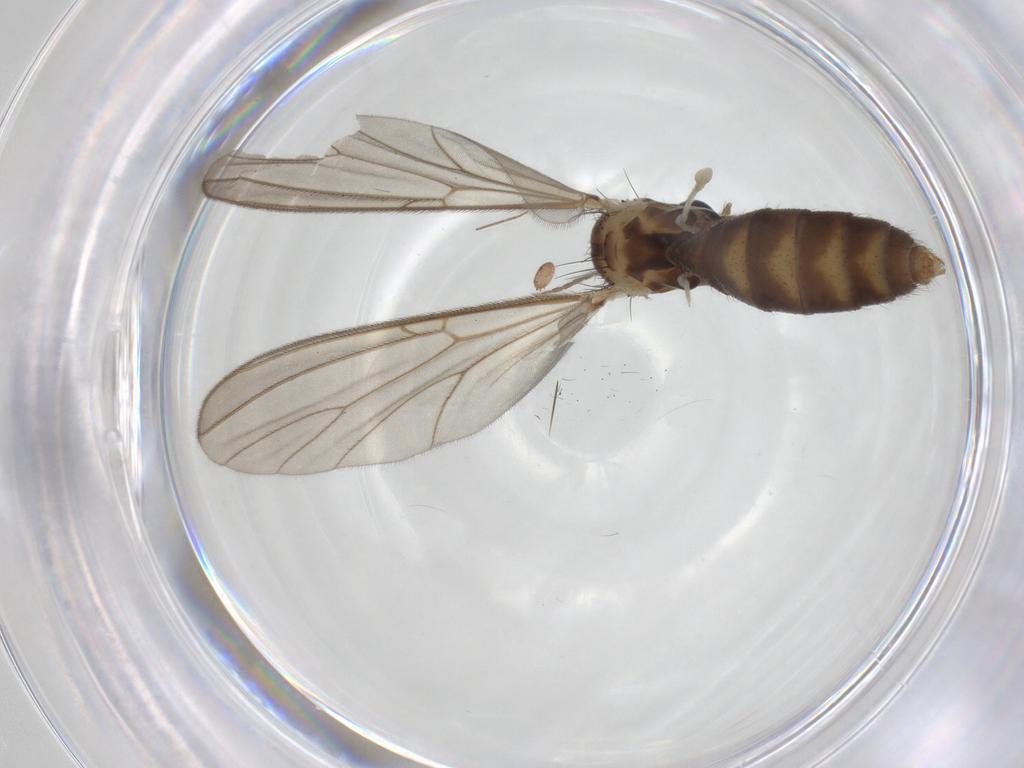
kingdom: Animalia
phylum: Arthropoda
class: Insecta
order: Diptera
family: Mycetophilidae
